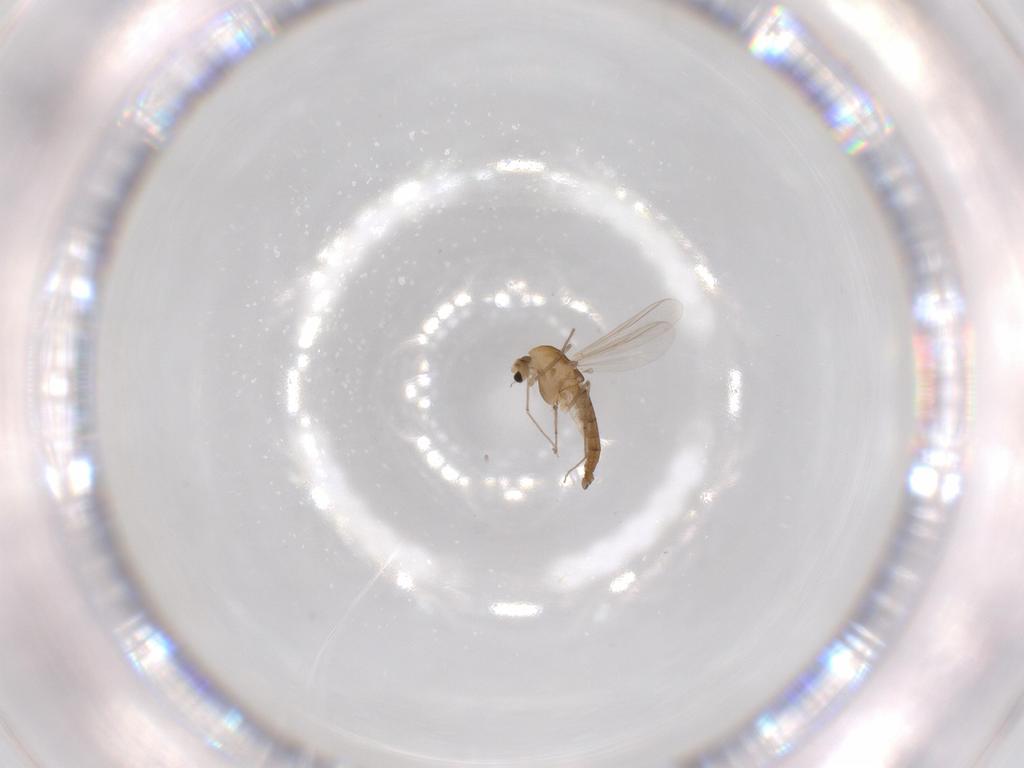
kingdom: Animalia
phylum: Arthropoda
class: Insecta
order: Diptera
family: Chironomidae
